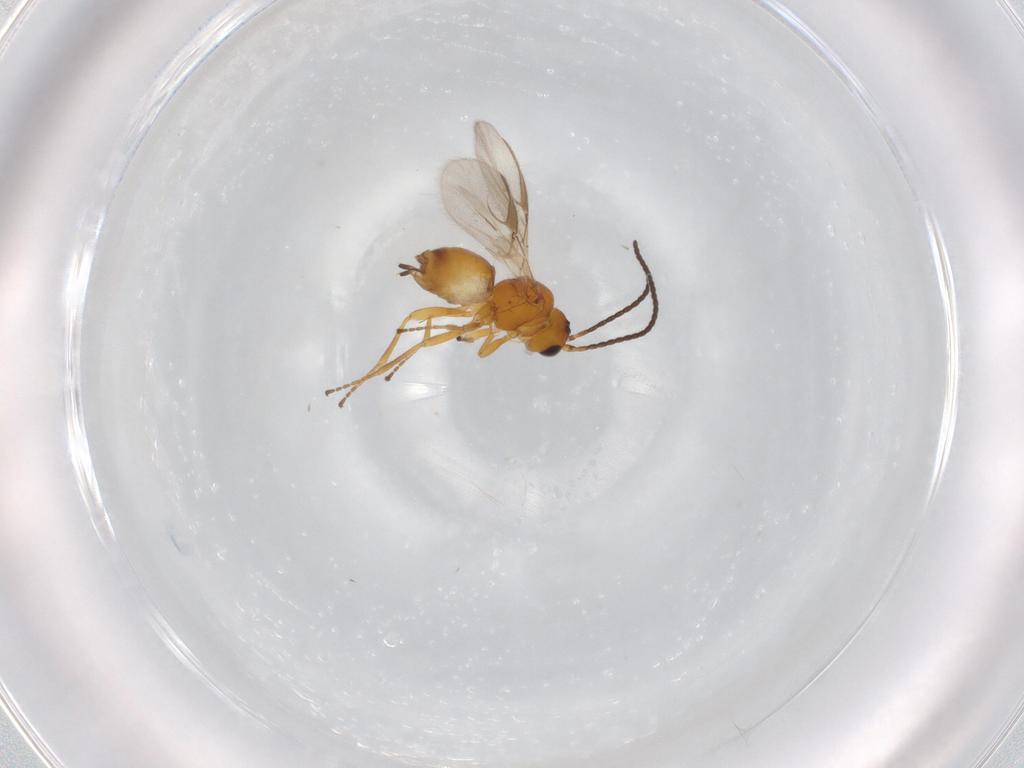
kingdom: Animalia
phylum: Arthropoda
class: Insecta
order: Hymenoptera
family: Braconidae
